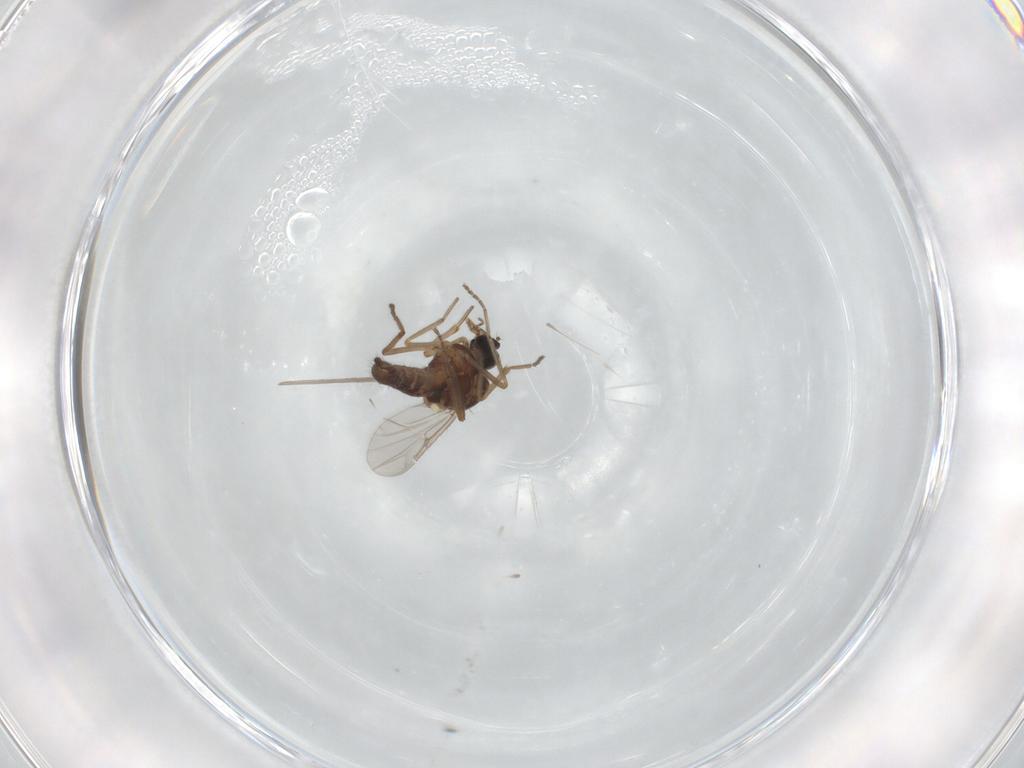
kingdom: Animalia
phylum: Arthropoda
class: Insecta
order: Diptera
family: Ceratopogonidae
